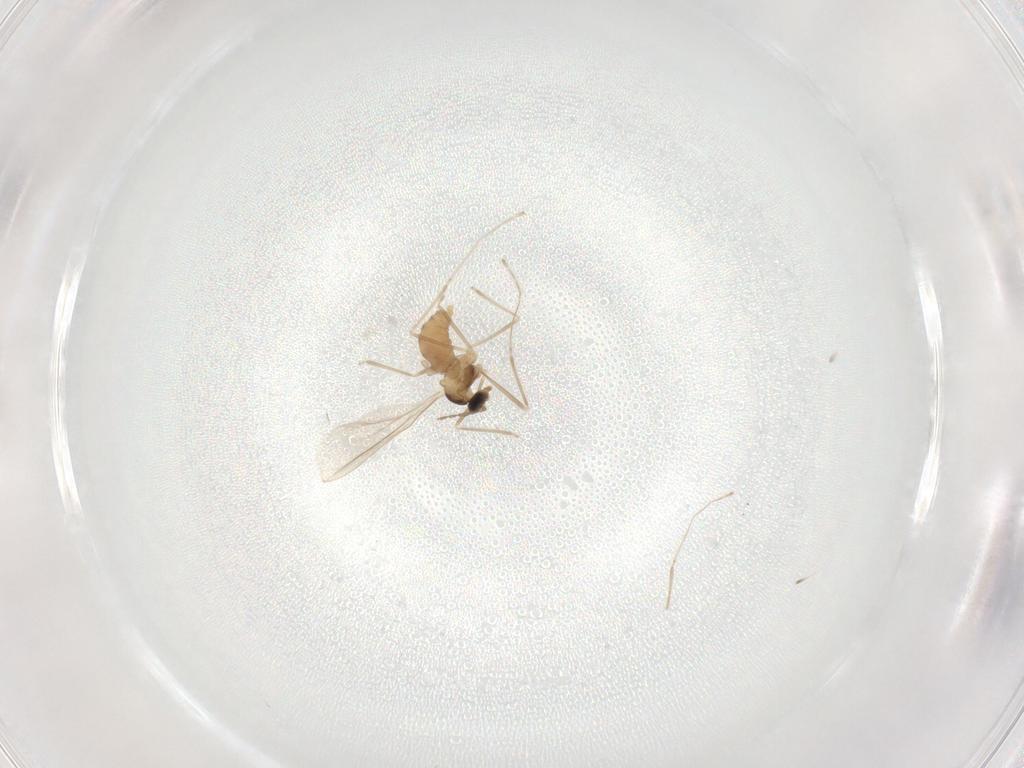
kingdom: Animalia
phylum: Arthropoda
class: Insecta
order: Diptera
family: Cecidomyiidae
